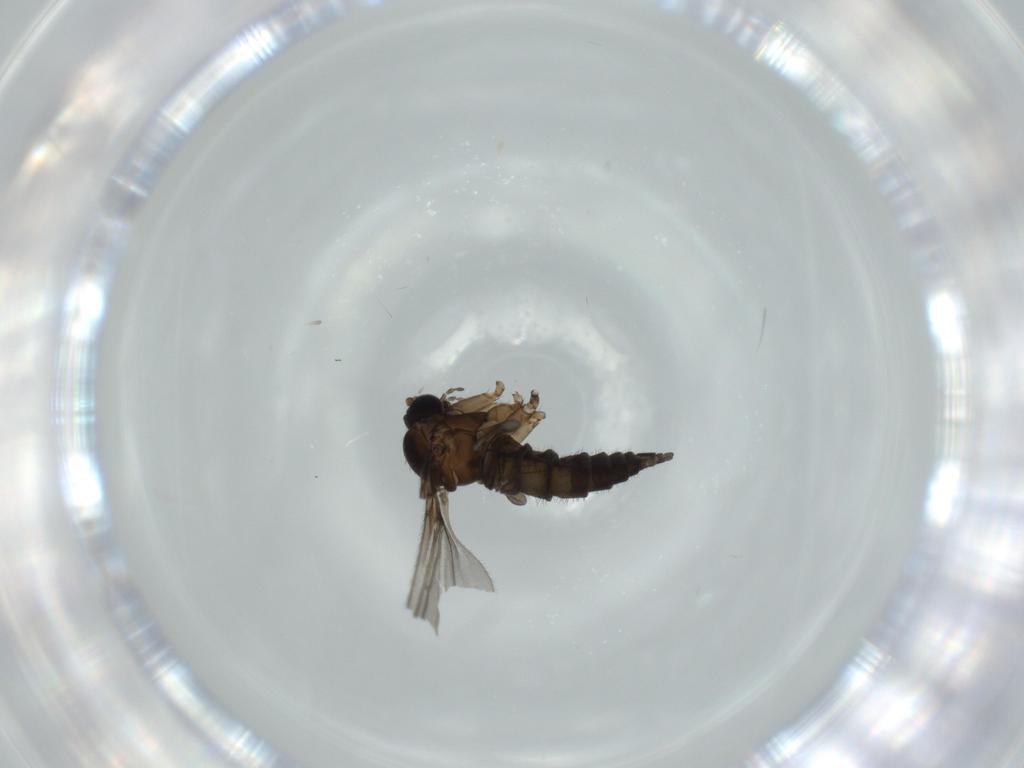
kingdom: Animalia
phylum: Arthropoda
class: Insecta
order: Diptera
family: Sciaridae
